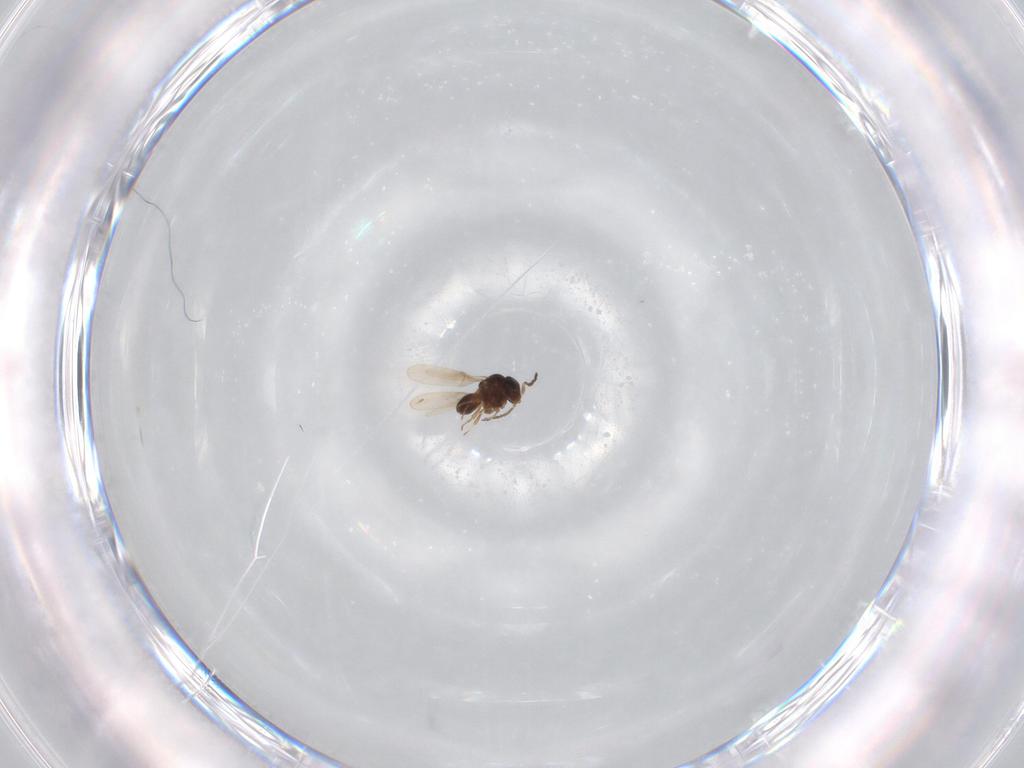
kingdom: Animalia
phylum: Arthropoda
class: Insecta
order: Hymenoptera
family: Scelionidae
